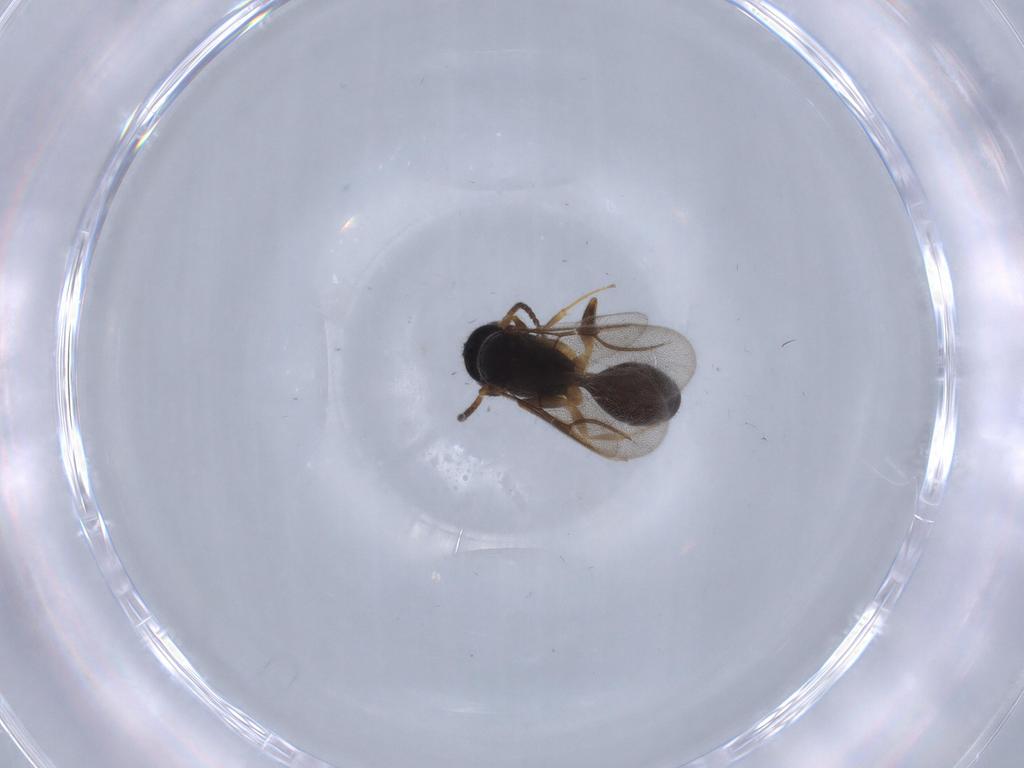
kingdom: Animalia
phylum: Arthropoda
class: Insecta
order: Hymenoptera
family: Bethylidae
